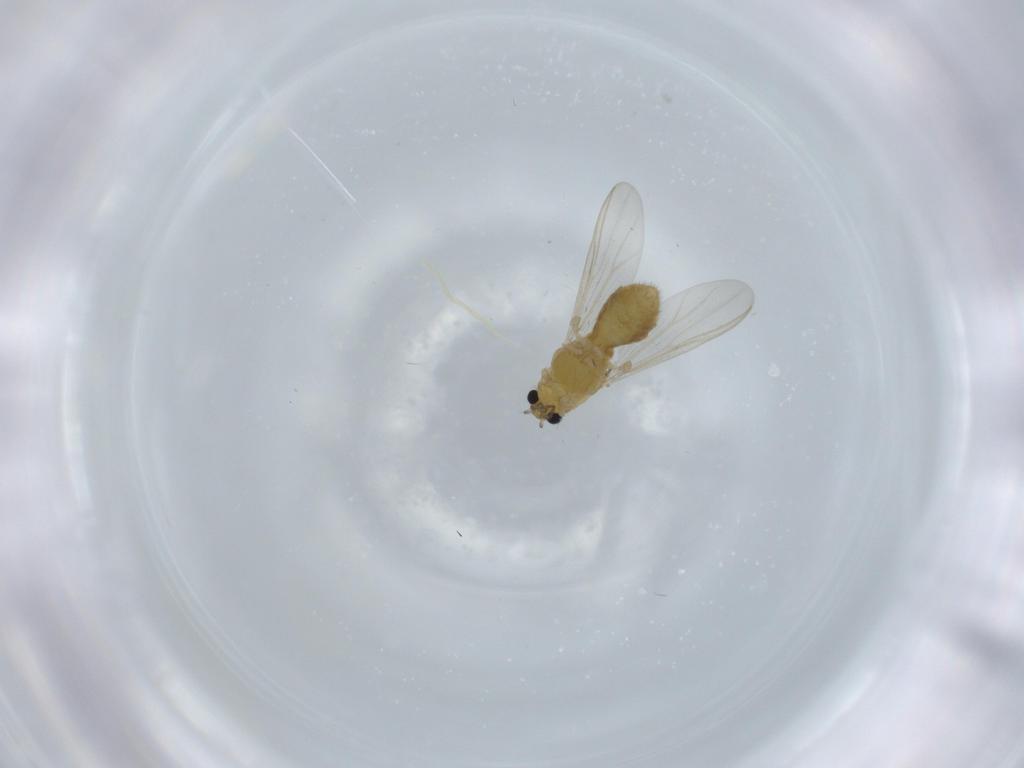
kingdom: Animalia
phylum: Arthropoda
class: Insecta
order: Diptera
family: Chironomidae
